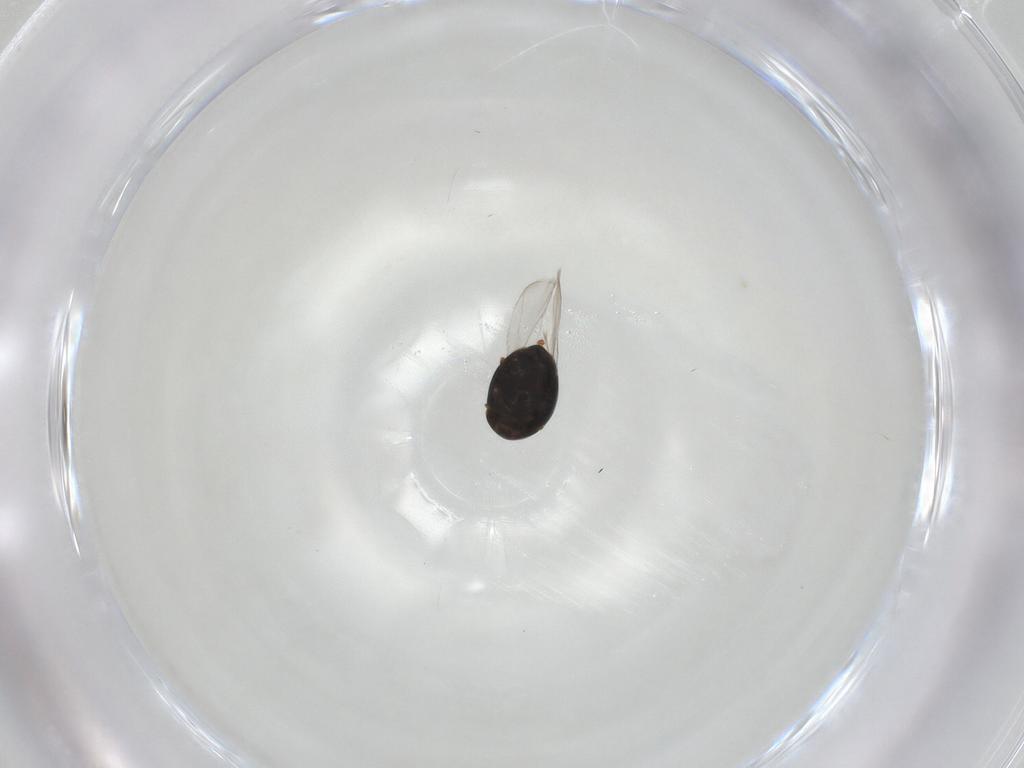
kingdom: Animalia
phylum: Arthropoda
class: Insecta
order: Coleoptera
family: Corylophidae
